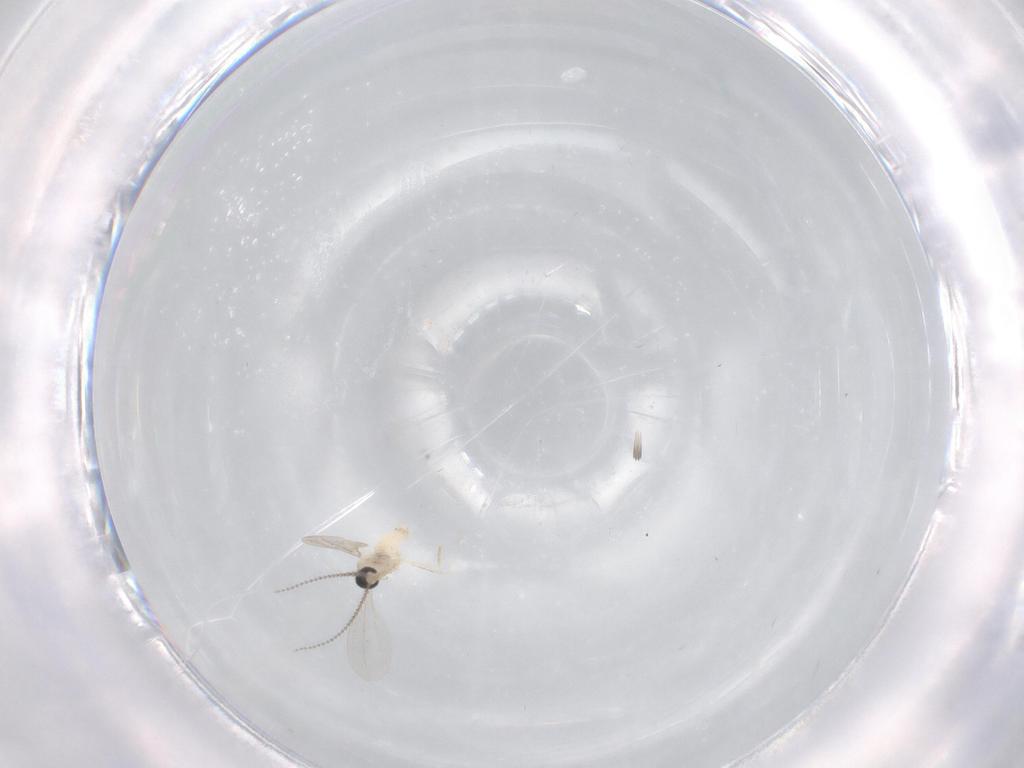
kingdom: Animalia
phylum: Arthropoda
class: Insecta
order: Diptera
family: Cecidomyiidae
